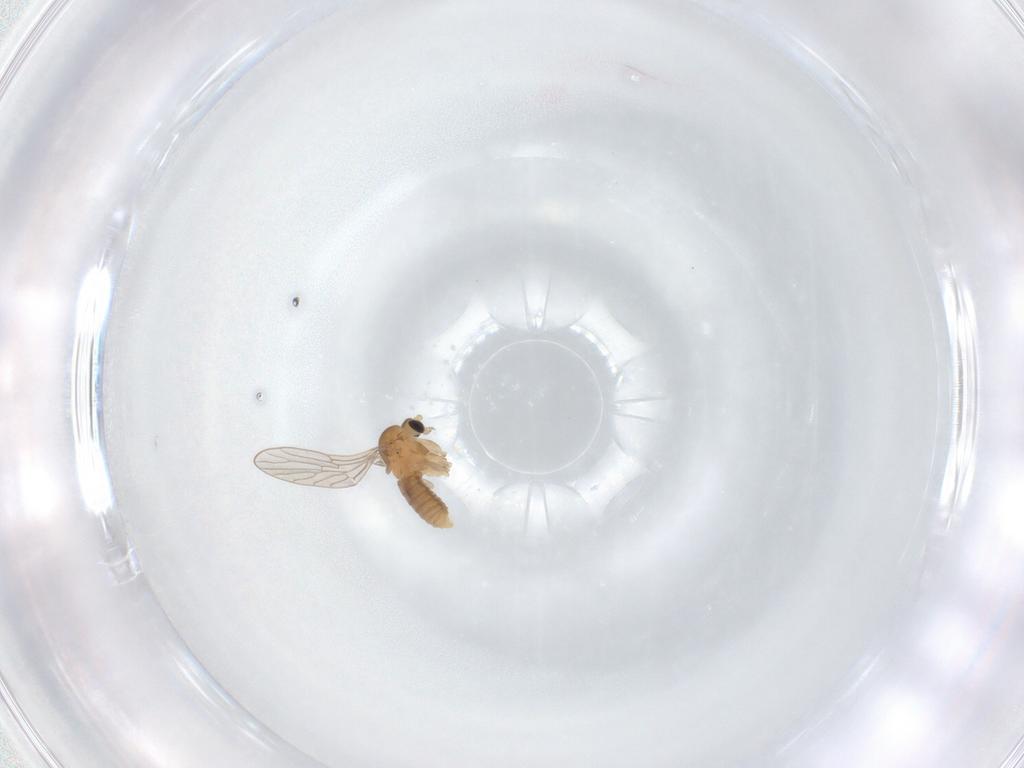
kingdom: Animalia
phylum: Arthropoda
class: Insecta
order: Diptera
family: Psychodidae
